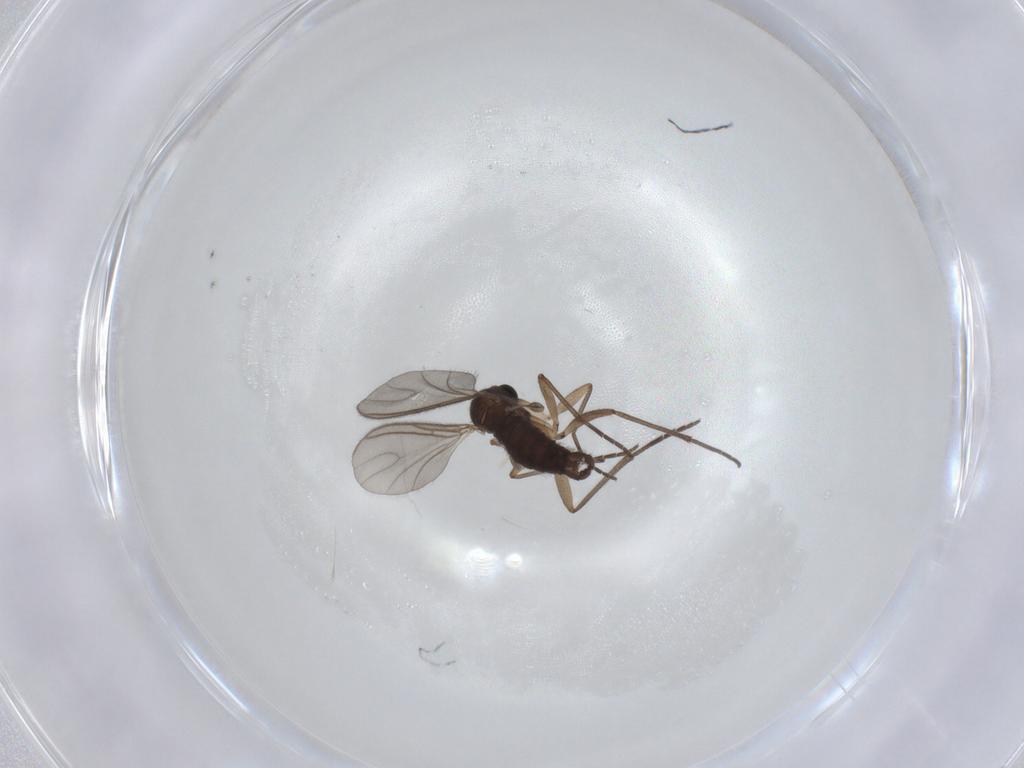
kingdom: Animalia
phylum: Arthropoda
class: Insecta
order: Diptera
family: Sciaridae
